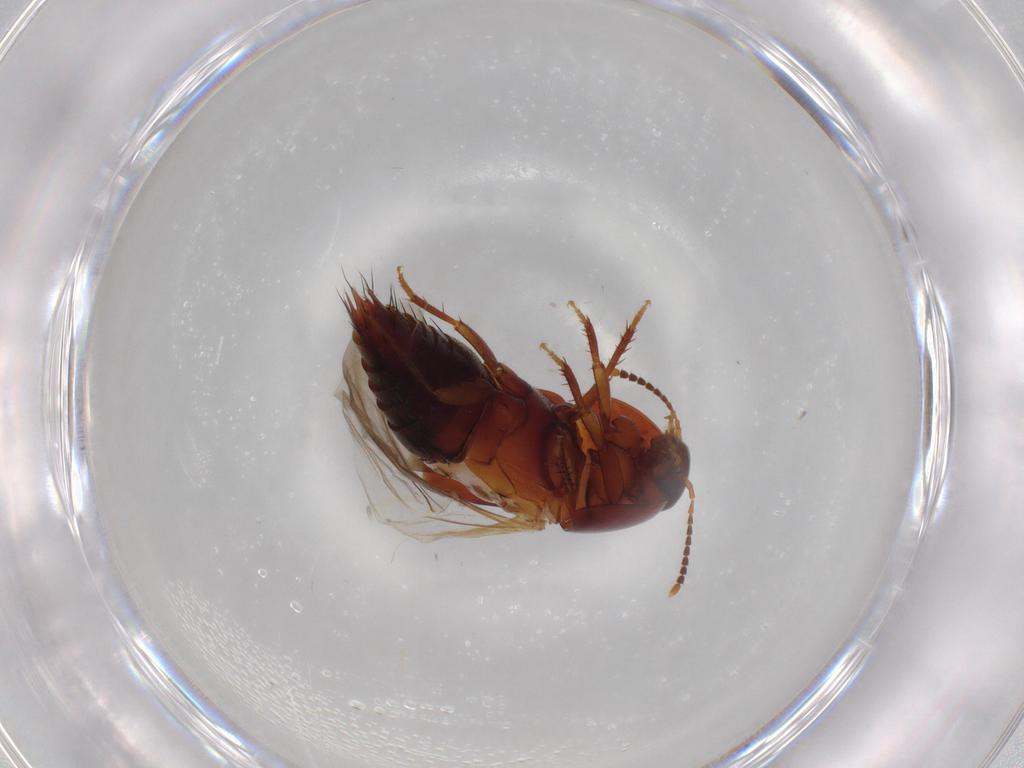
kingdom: Animalia
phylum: Arthropoda
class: Insecta
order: Coleoptera
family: Staphylinidae
